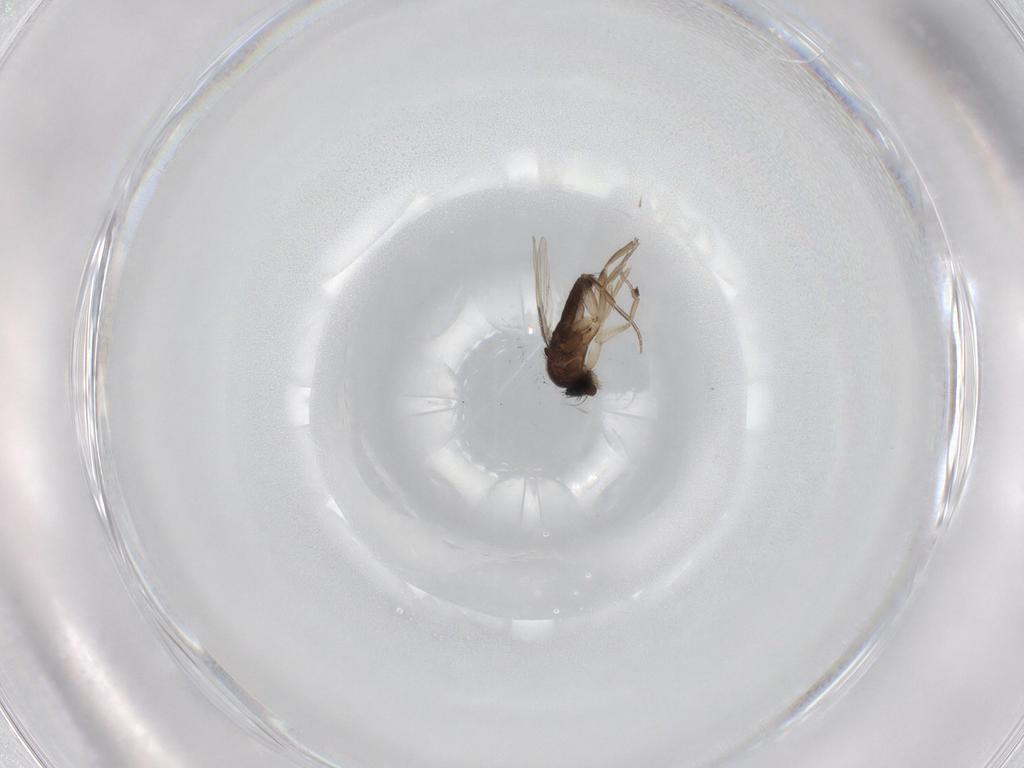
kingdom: Animalia
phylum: Arthropoda
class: Insecta
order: Diptera
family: Phoridae
